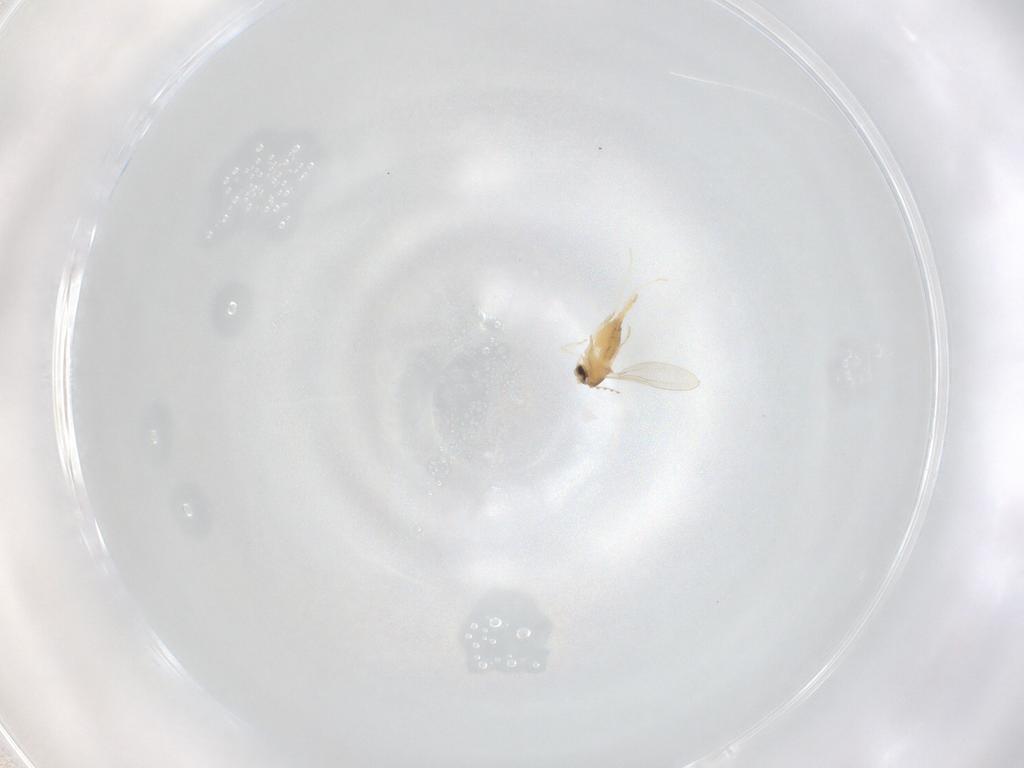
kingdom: Animalia
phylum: Arthropoda
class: Insecta
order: Diptera
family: Cecidomyiidae
